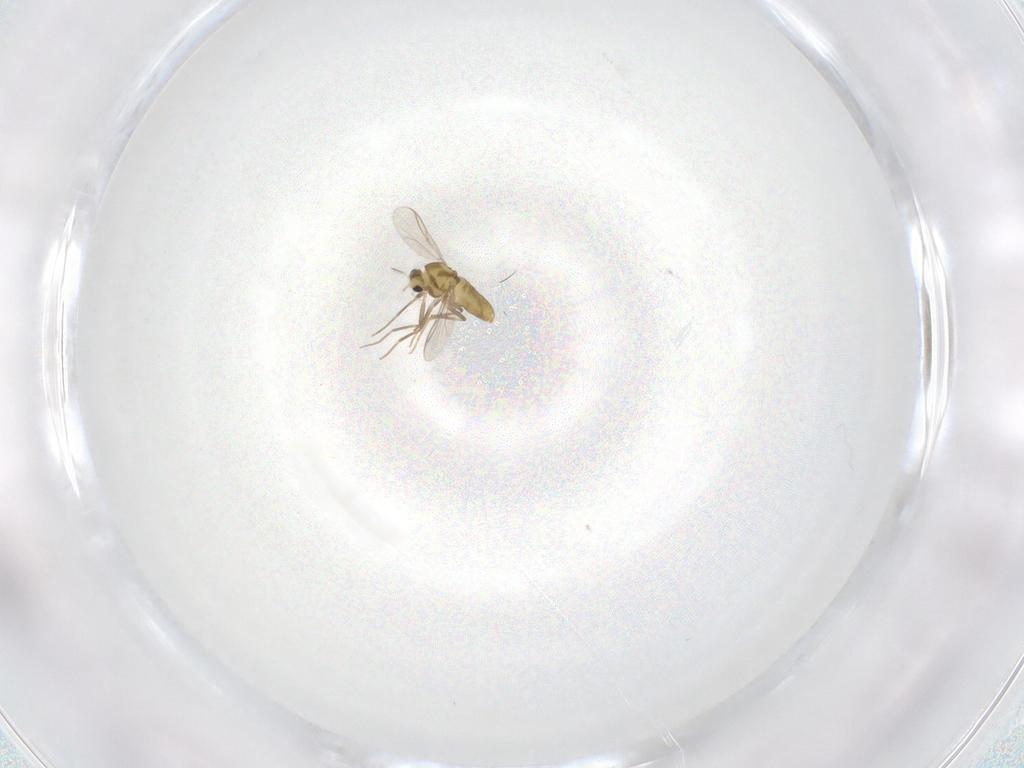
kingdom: Animalia
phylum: Arthropoda
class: Insecta
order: Diptera
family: Chironomidae
